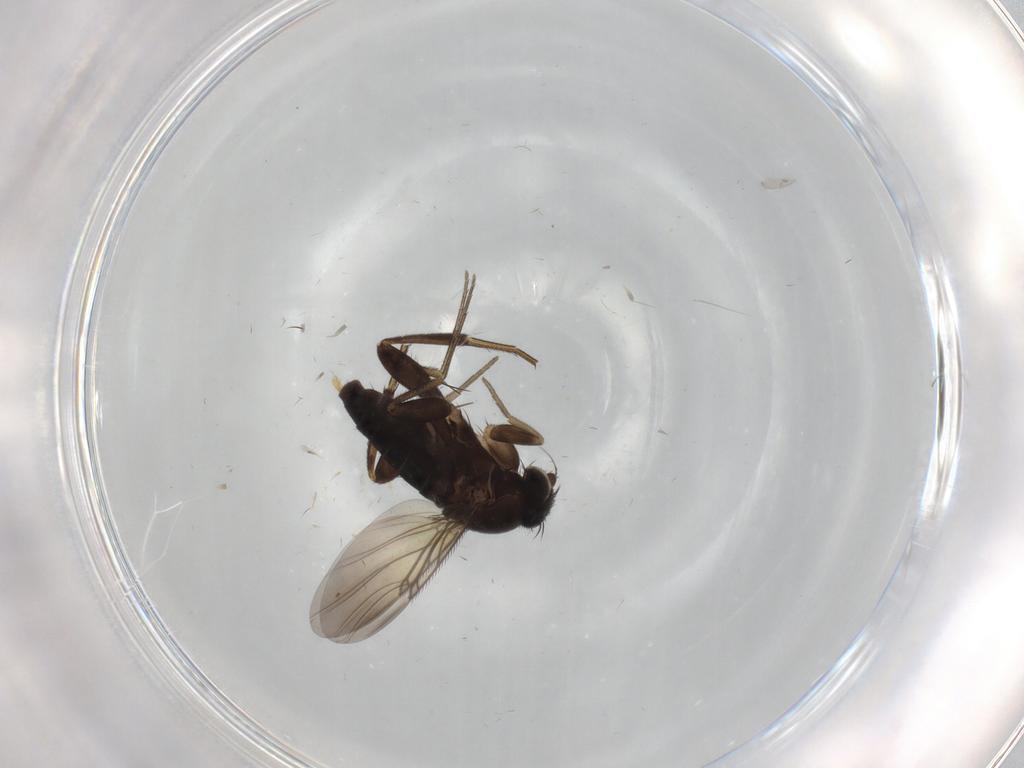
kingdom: Animalia
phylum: Arthropoda
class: Insecta
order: Diptera
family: Phoridae
